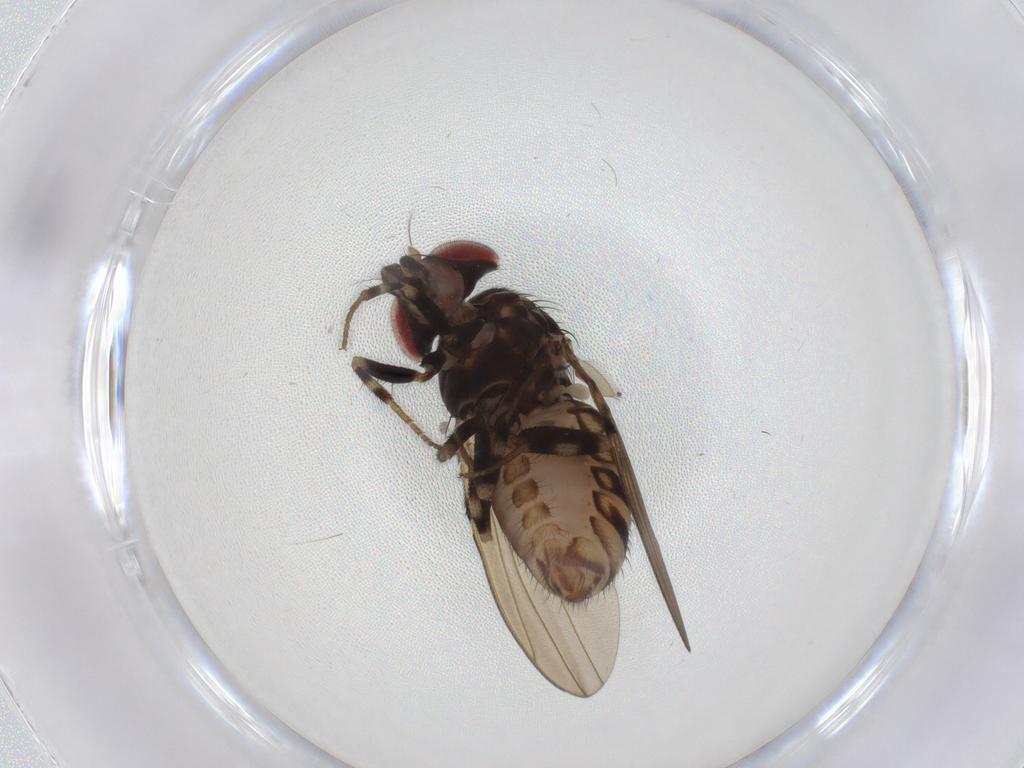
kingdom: Animalia
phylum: Arthropoda
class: Insecta
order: Diptera
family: Drosophilidae
